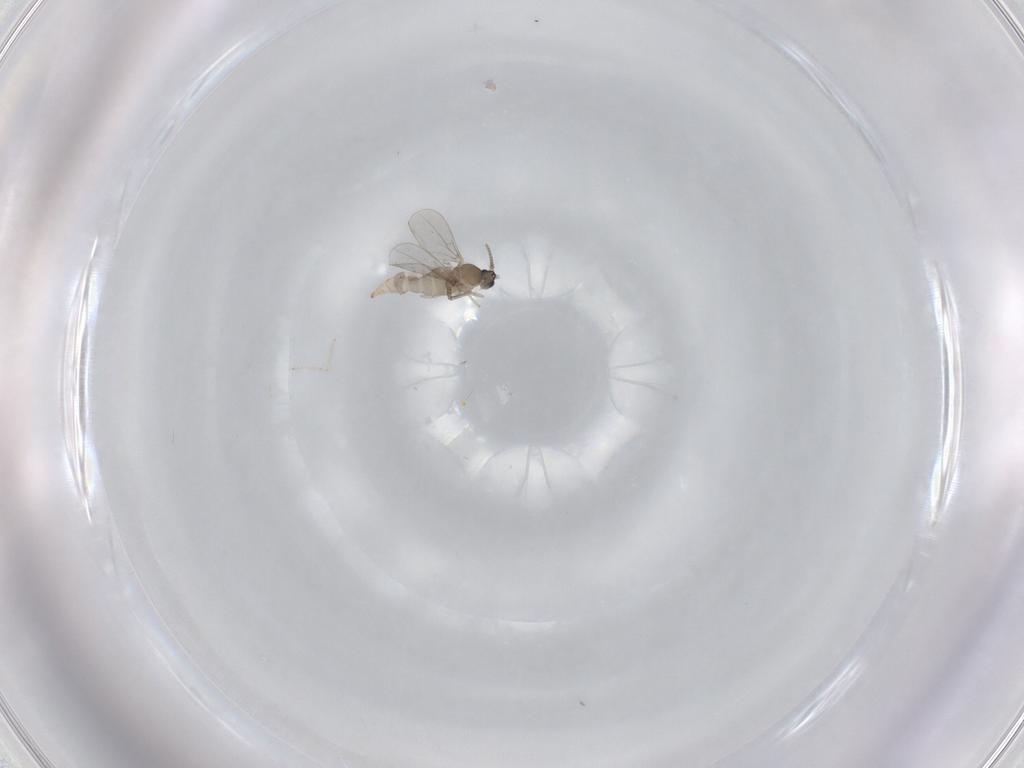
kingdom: Animalia
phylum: Arthropoda
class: Insecta
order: Diptera
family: Cecidomyiidae
